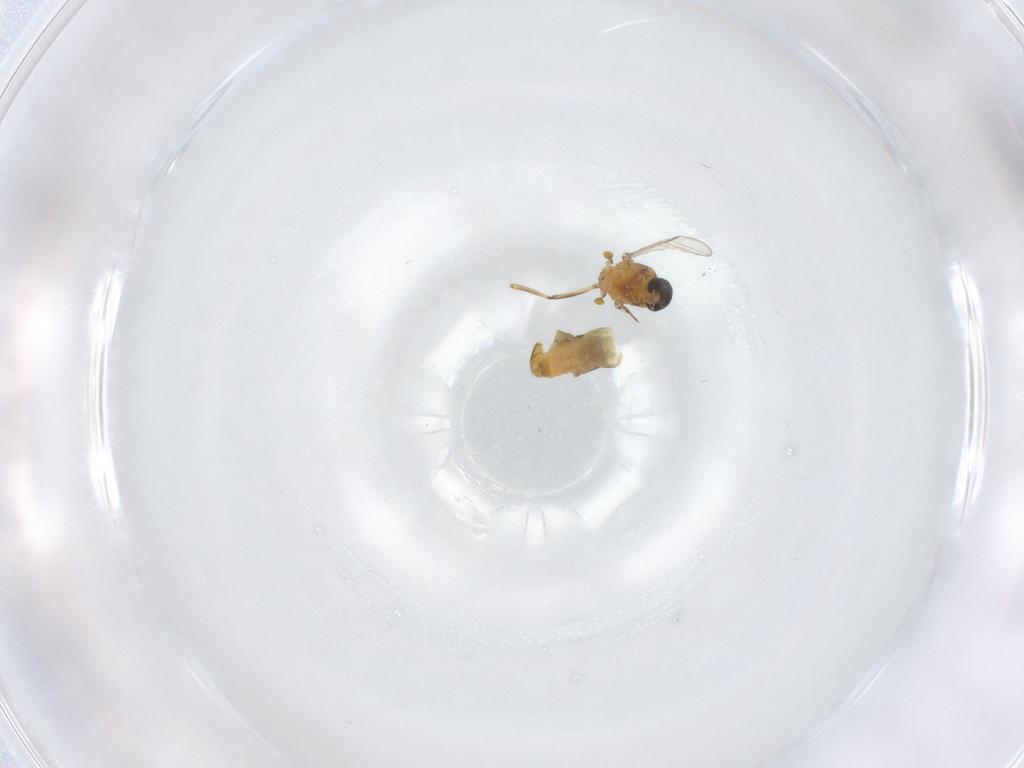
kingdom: Animalia
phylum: Arthropoda
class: Insecta
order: Diptera
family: Ceratopogonidae
